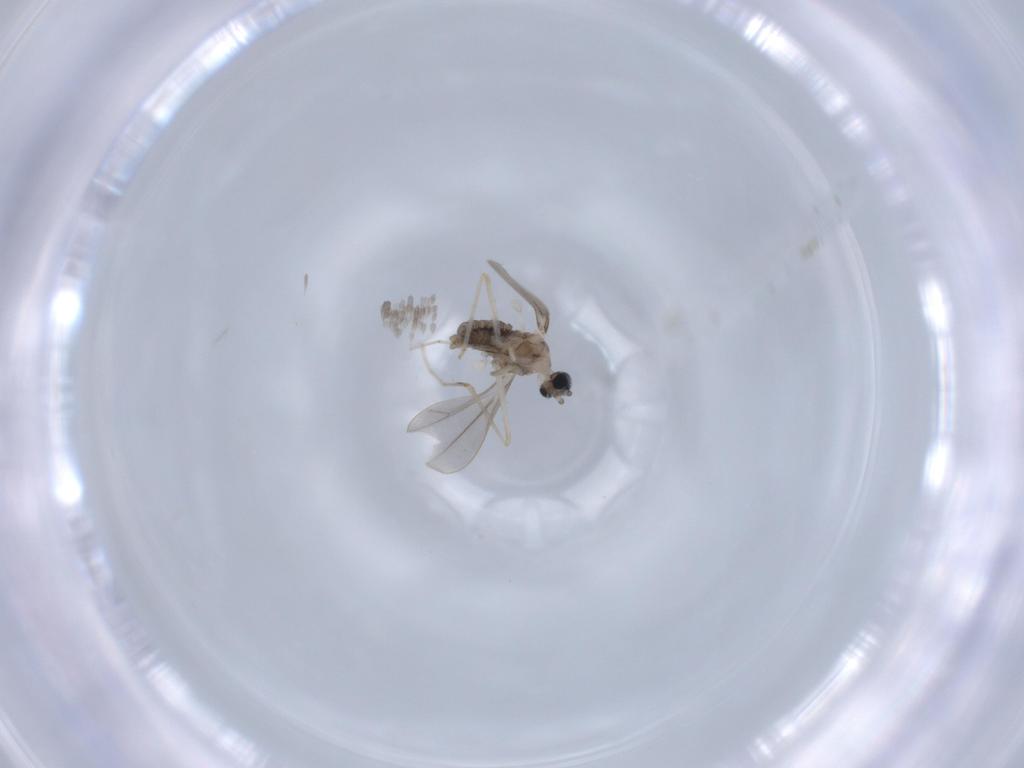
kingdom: Animalia
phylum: Arthropoda
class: Insecta
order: Diptera
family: Cecidomyiidae
